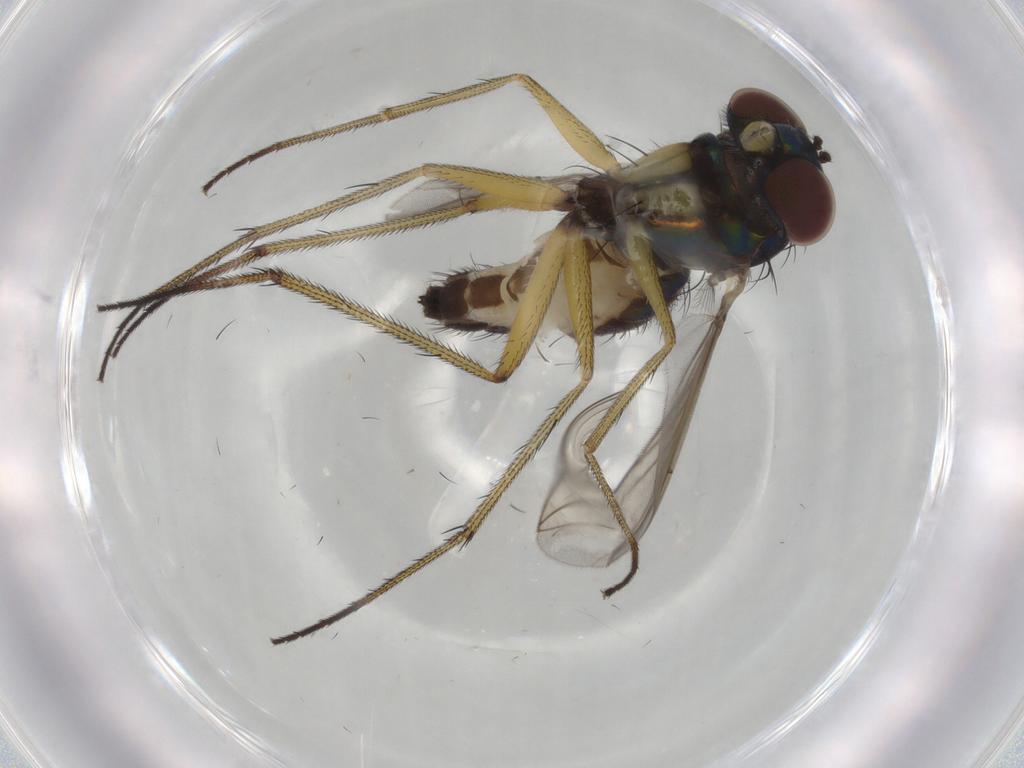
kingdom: Animalia
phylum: Arthropoda
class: Insecta
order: Diptera
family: Dolichopodidae
